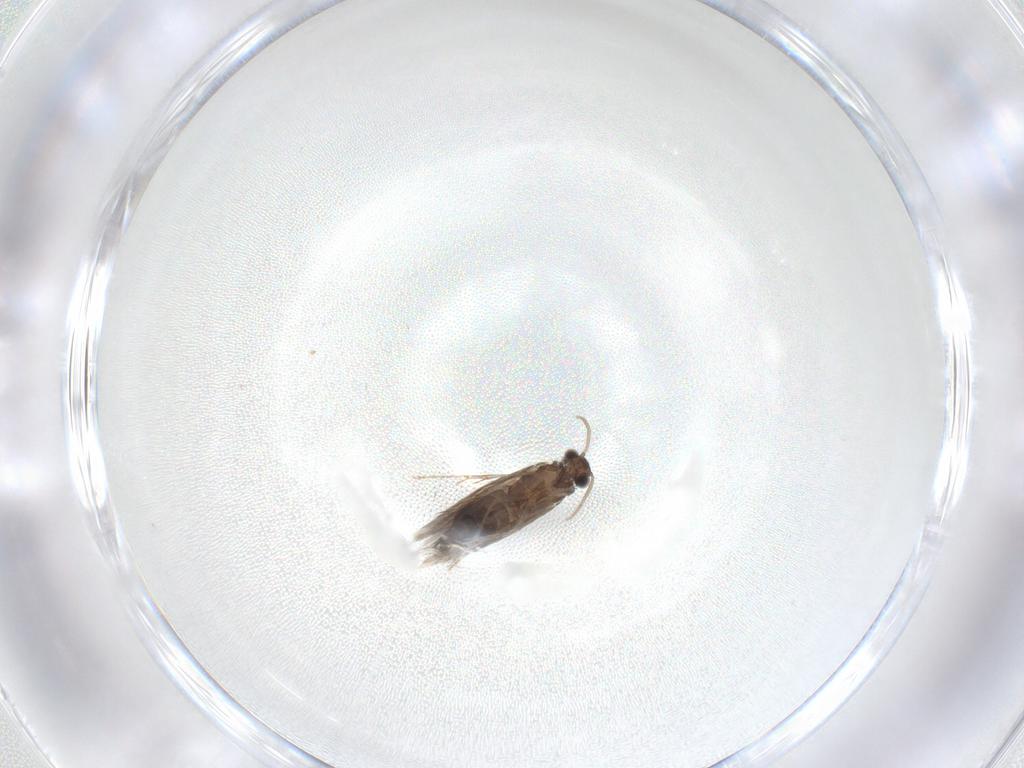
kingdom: Animalia
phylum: Arthropoda
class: Insecta
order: Trichoptera
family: Hydroptilidae
